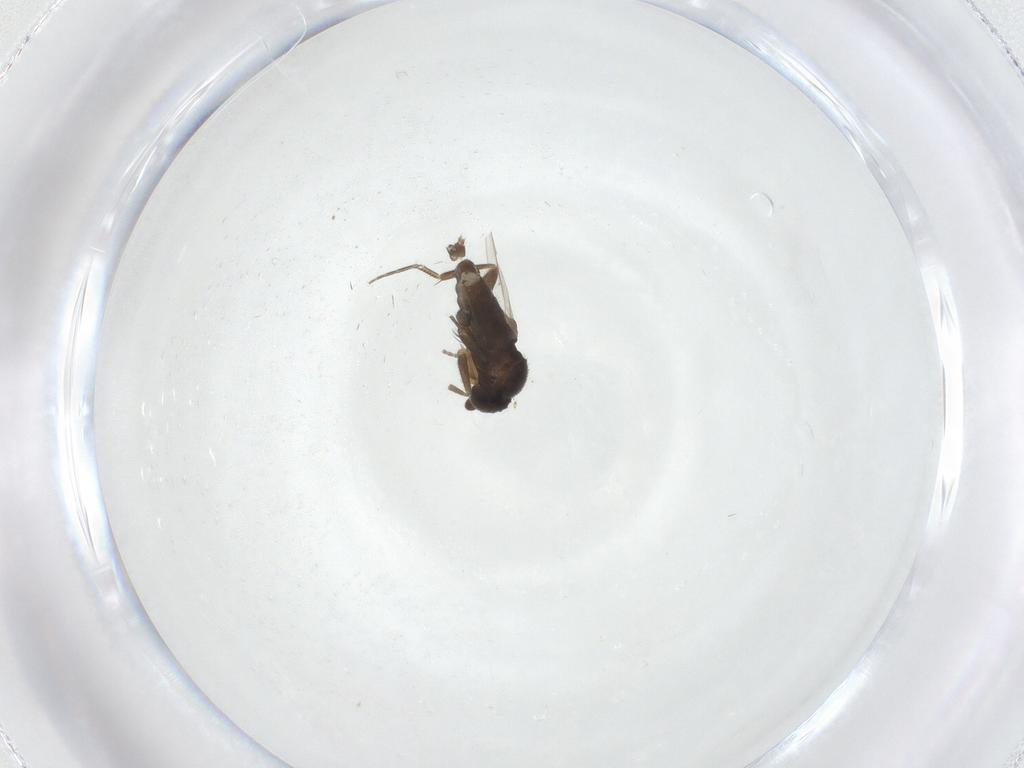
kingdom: Animalia
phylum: Arthropoda
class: Insecta
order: Diptera
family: Phoridae
